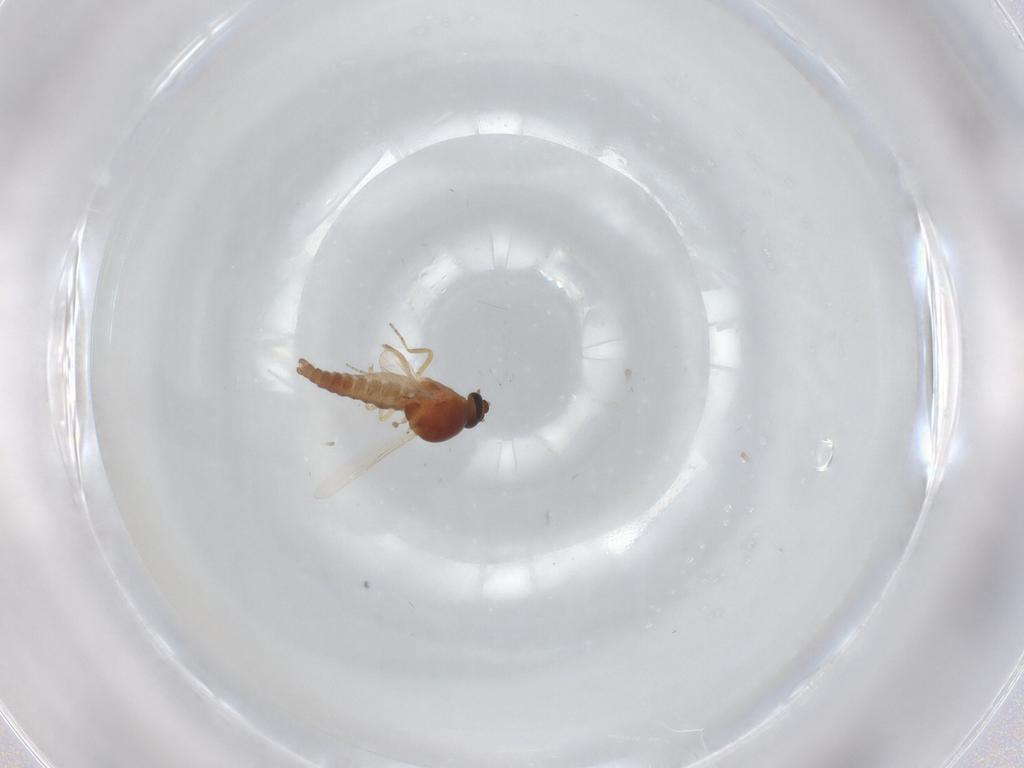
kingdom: Animalia
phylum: Arthropoda
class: Insecta
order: Diptera
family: Ceratopogonidae
